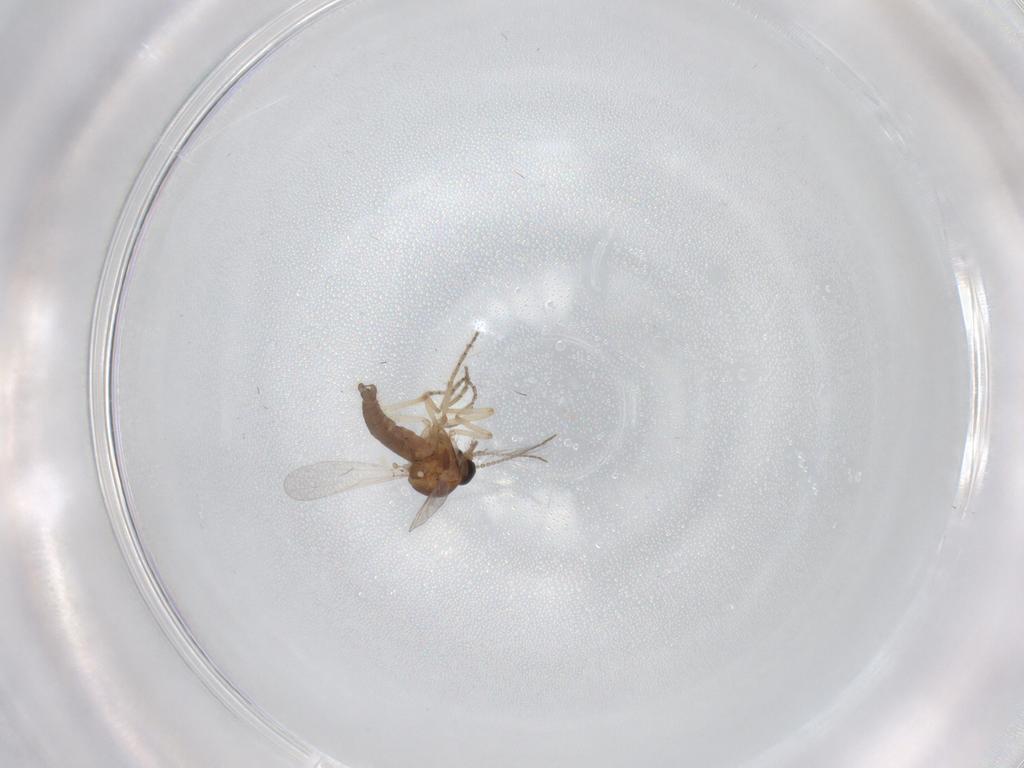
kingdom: Animalia
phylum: Arthropoda
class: Insecta
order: Diptera
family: Ceratopogonidae
